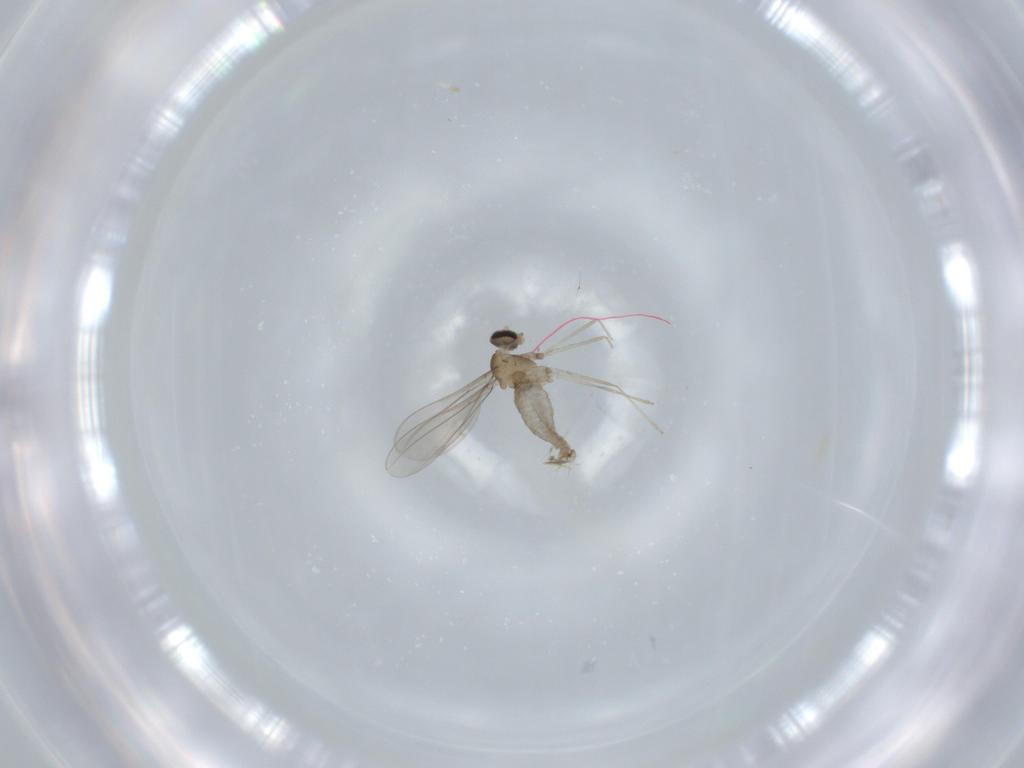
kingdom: Animalia
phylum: Arthropoda
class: Insecta
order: Diptera
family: Cecidomyiidae
